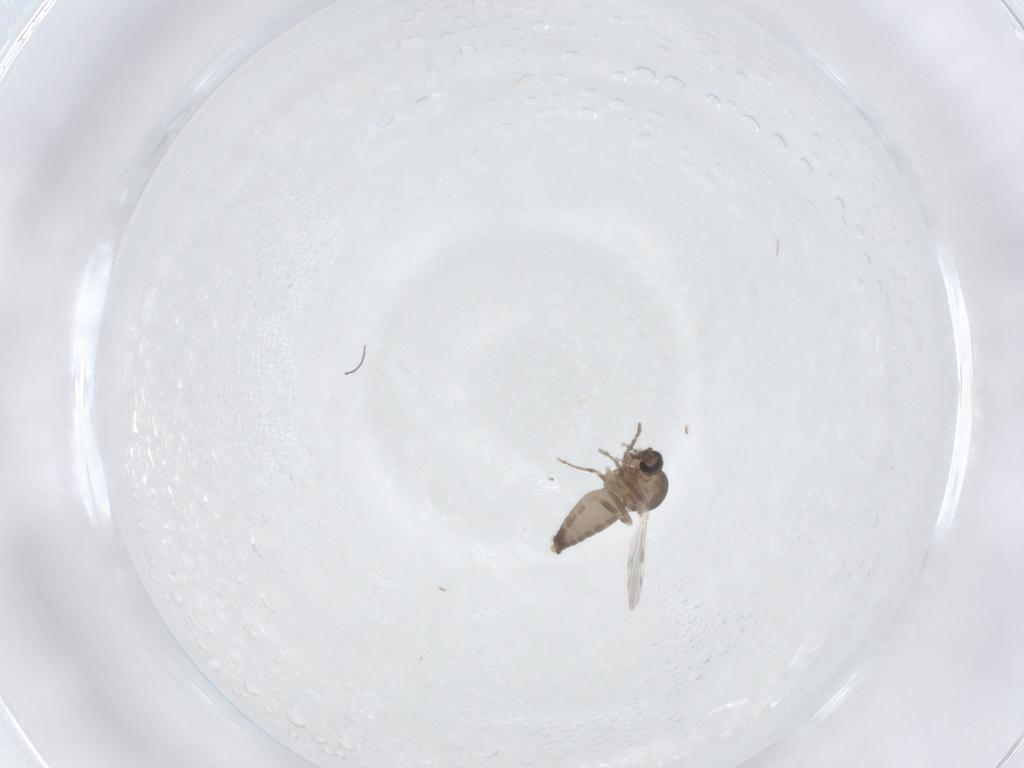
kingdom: Animalia
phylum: Arthropoda
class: Insecta
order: Diptera
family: Ceratopogonidae
